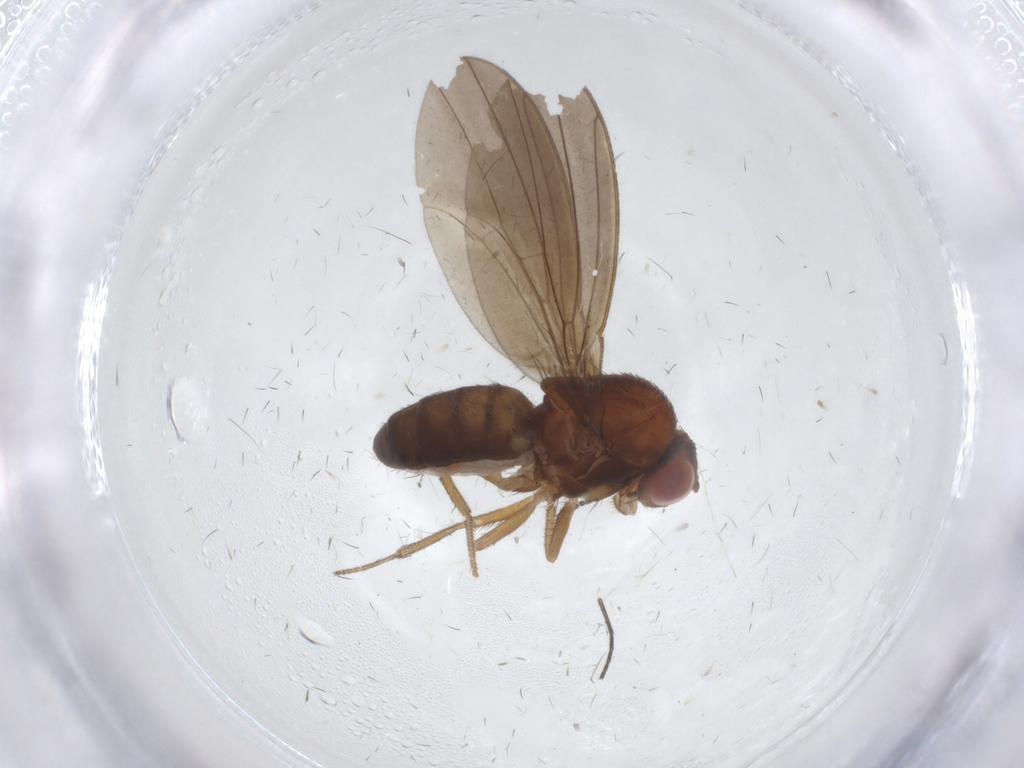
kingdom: Animalia
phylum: Arthropoda
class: Insecta
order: Diptera
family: Drosophilidae
